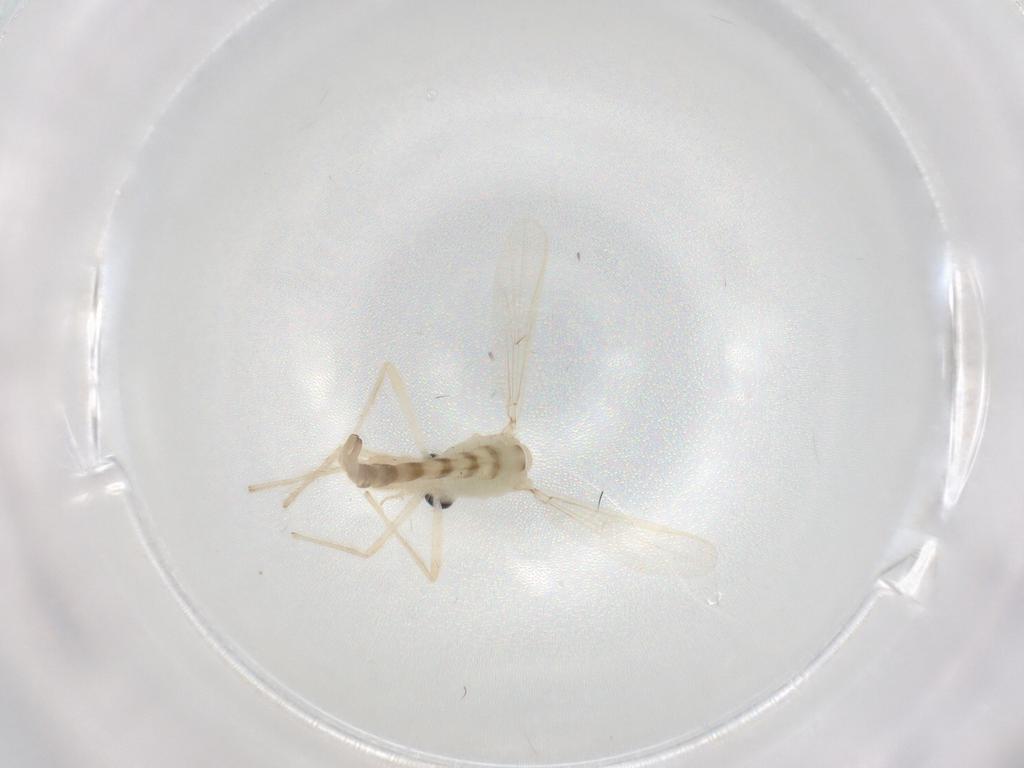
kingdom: Animalia
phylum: Arthropoda
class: Insecta
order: Diptera
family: Chironomidae
